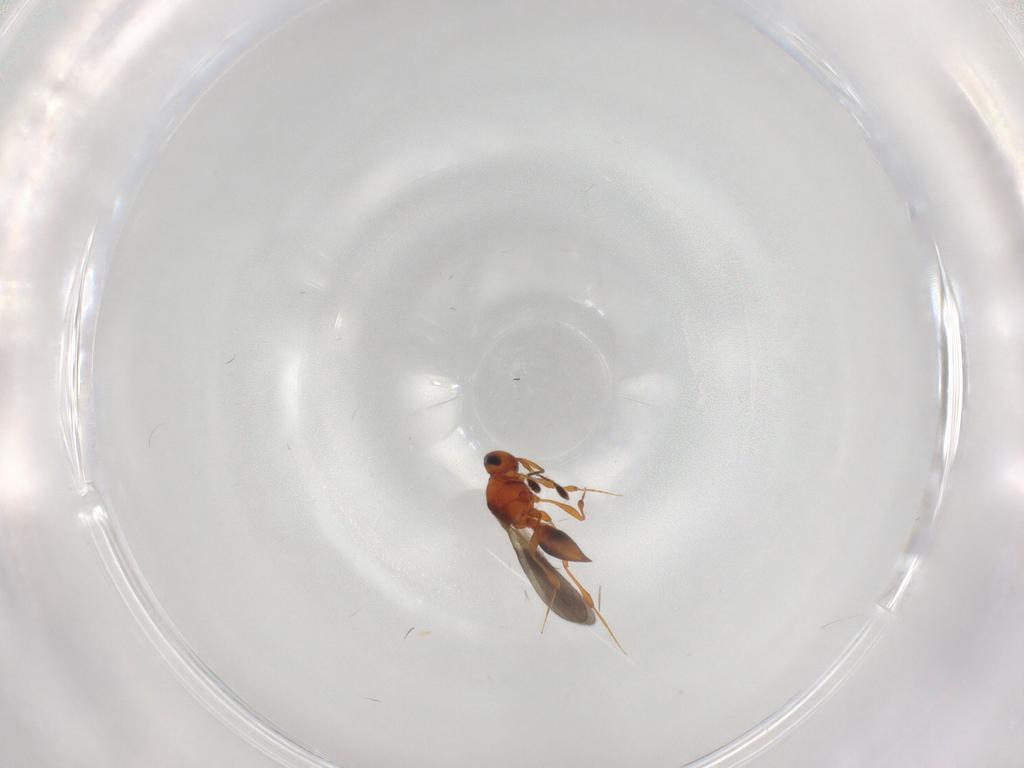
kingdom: Animalia
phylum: Arthropoda
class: Insecta
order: Hymenoptera
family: Platygastridae
